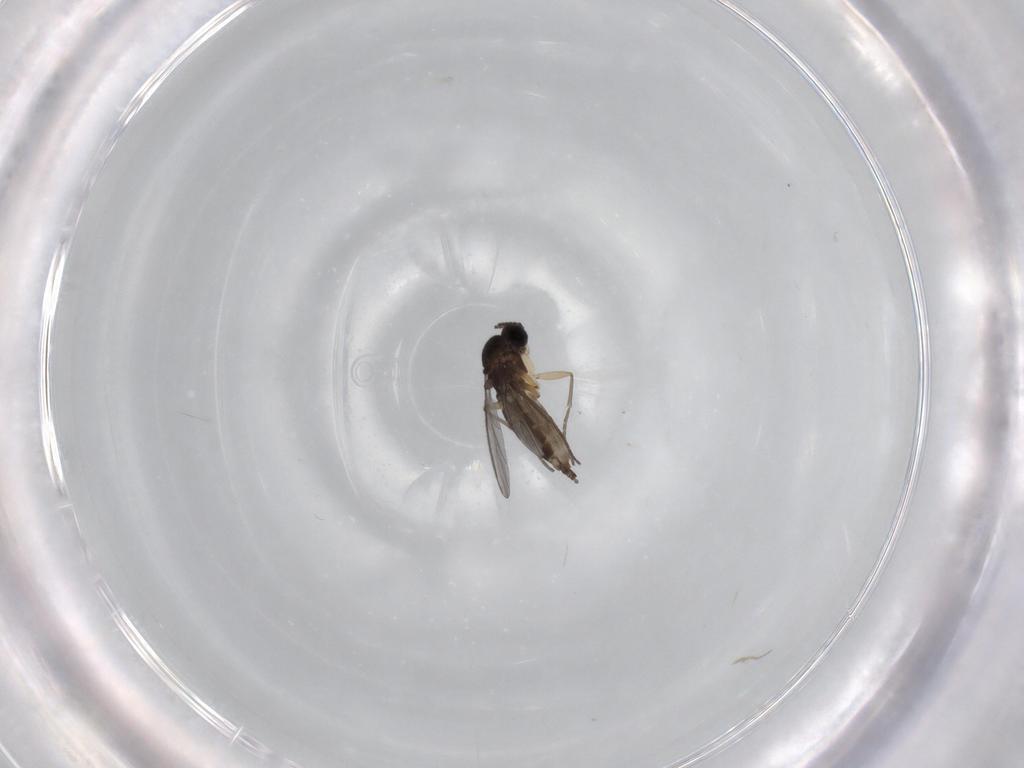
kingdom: Animalia
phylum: Arthropoda
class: Insecta
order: Diptera
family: Sciaridae
